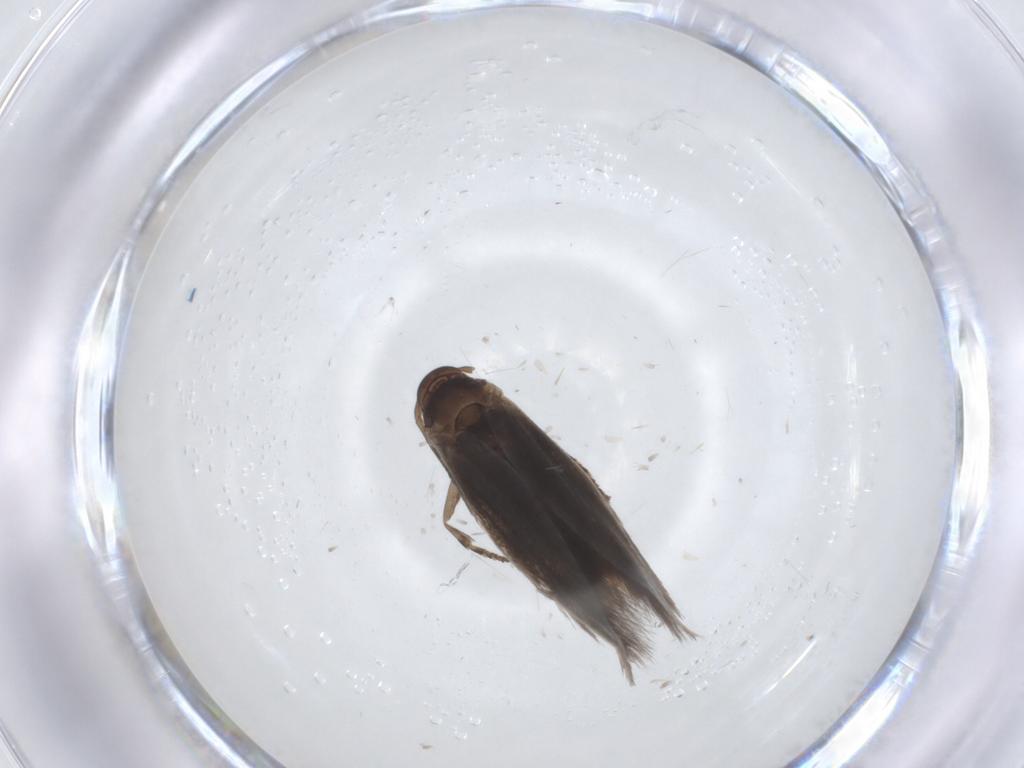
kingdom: Animalia
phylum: Arthropoda
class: Insecta
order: Lepidoptera
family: Elachistidae
